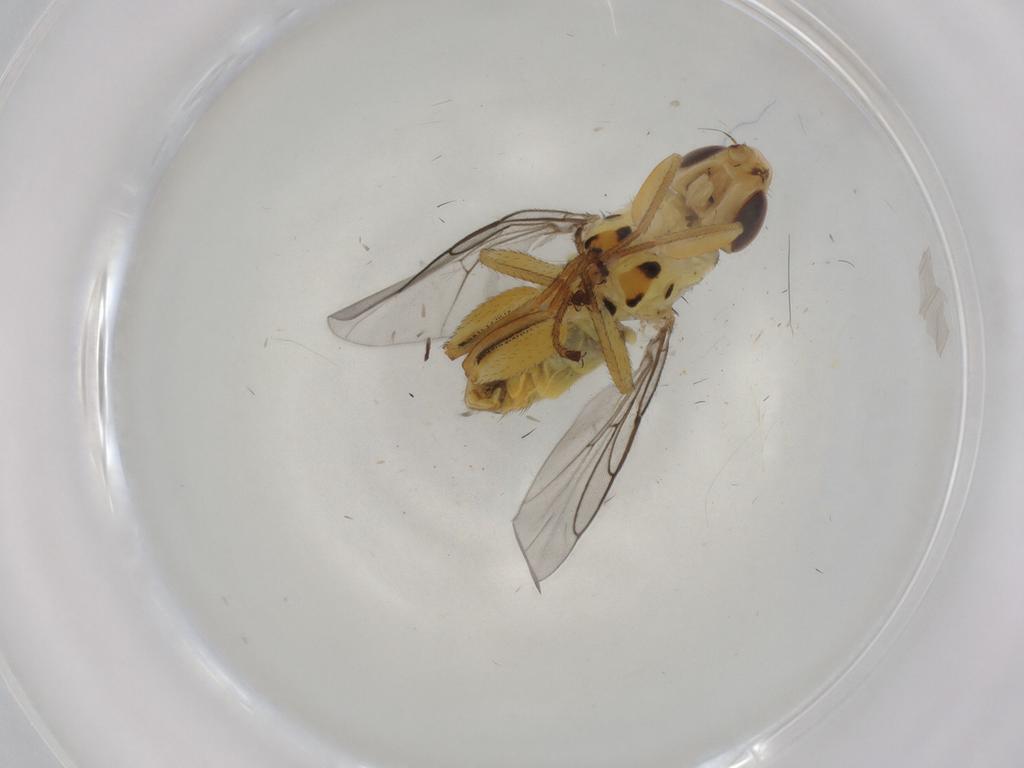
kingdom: Animalia
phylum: Arthropoda
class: Insecta
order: Diptera
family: Chloropidae
